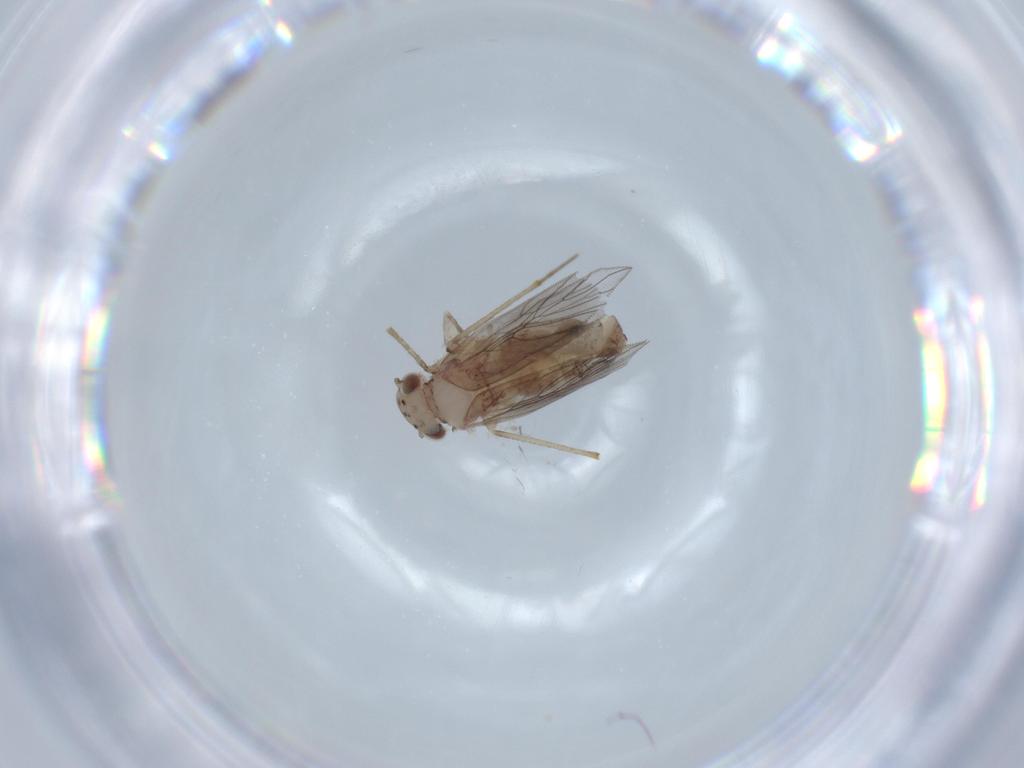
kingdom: Animalia
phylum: Arthropoda
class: Insecta
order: Psocodea
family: Lepidopsocidae
